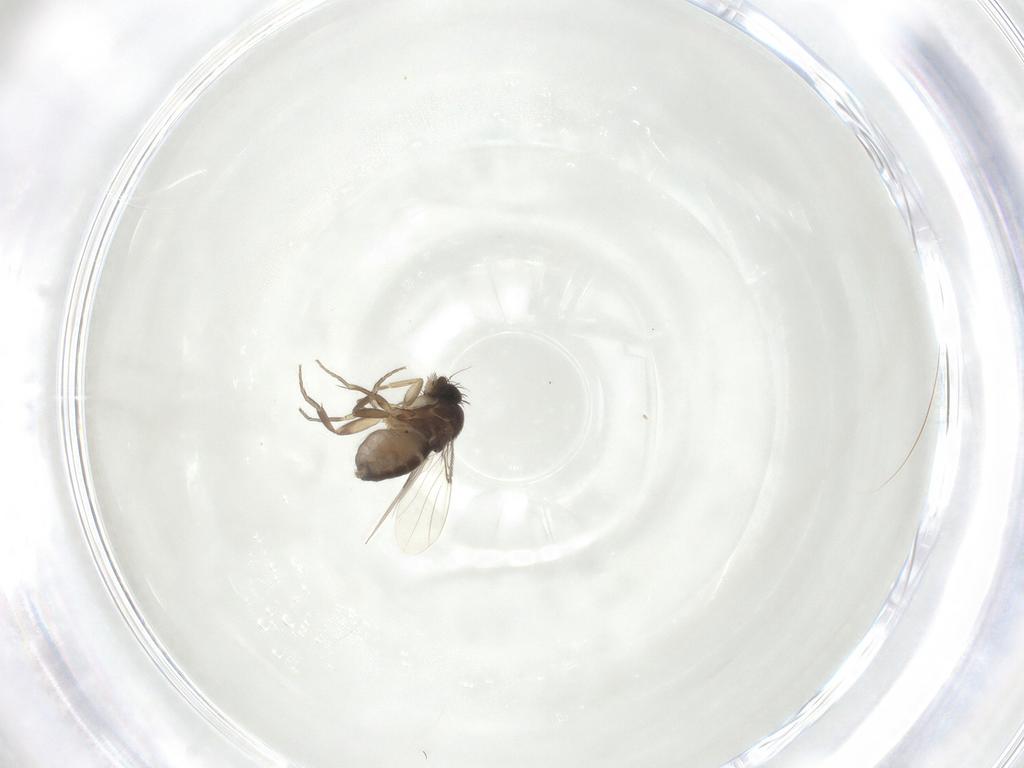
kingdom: Animalia
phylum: Arthropoda
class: Insecta
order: Diptera
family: Phoridae
